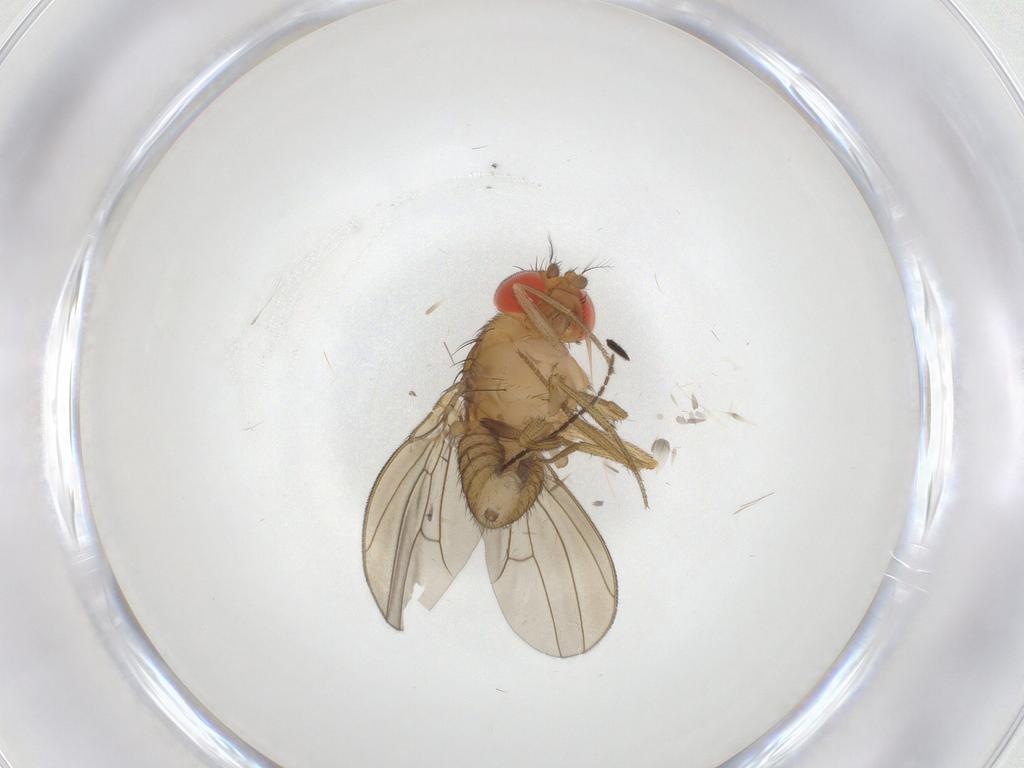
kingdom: Animalia
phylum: Arthropoda
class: Insecta
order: Diptera
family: Drosophilidae
